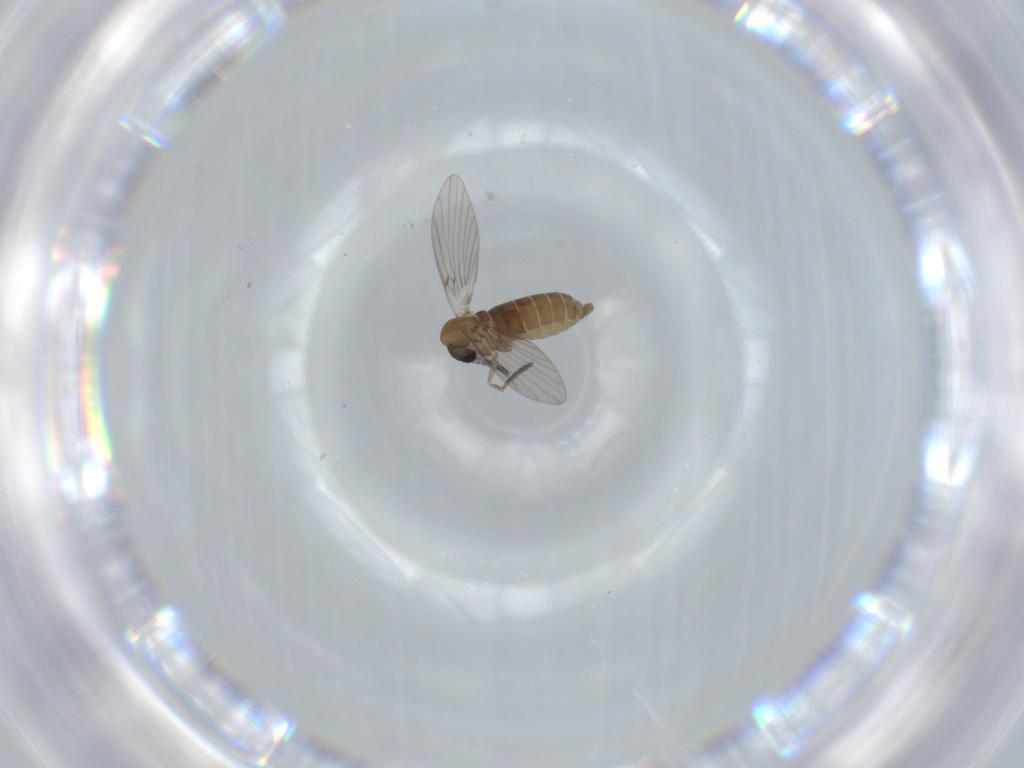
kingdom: Animalia
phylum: Arthropoda
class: Insecta
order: Diptera
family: Psychodidae
